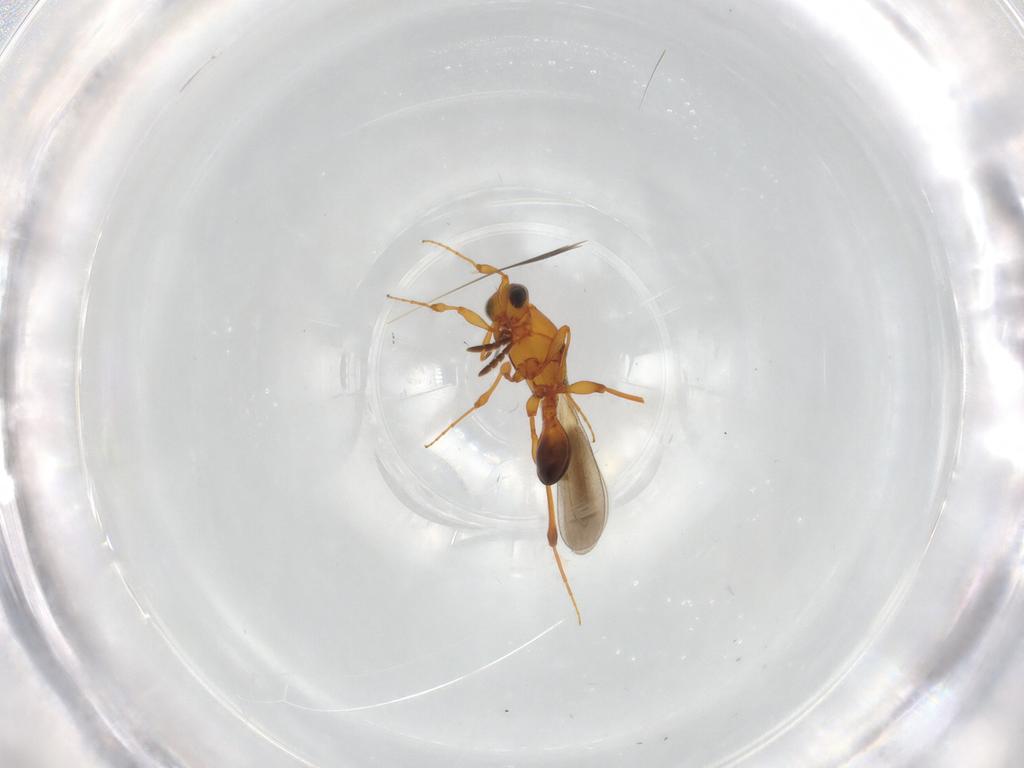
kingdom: Animalia
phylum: Arthropoda
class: Insecta
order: Hymenoptera
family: Platygastridae
